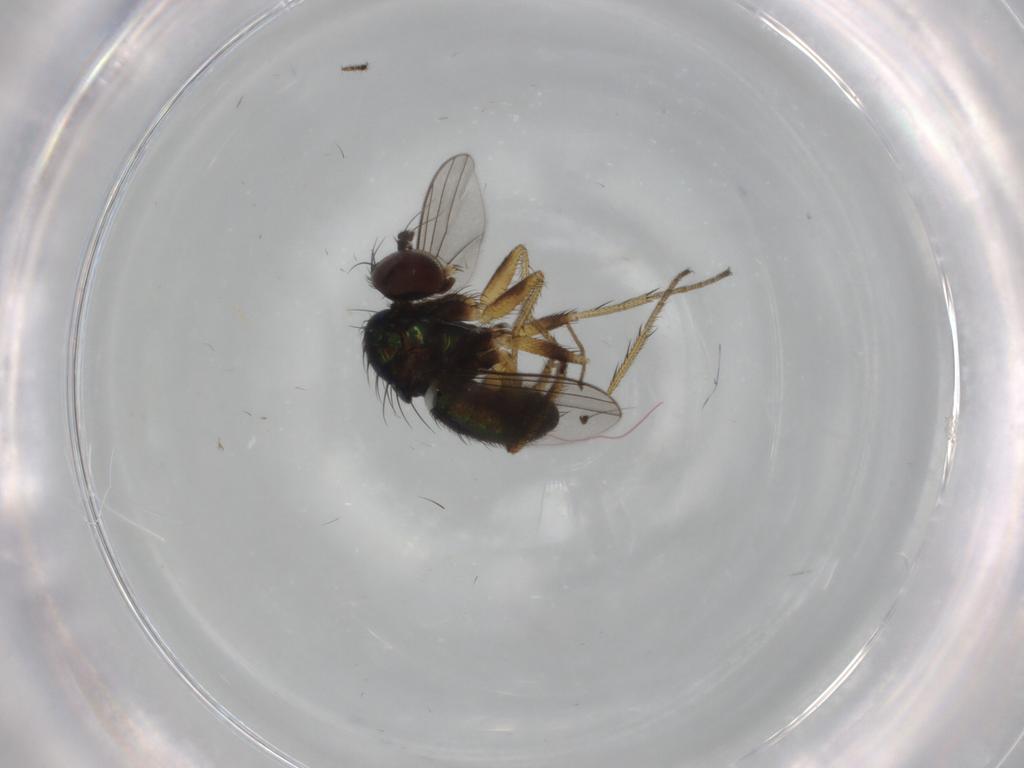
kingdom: Animalia
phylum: Arthropoda
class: Insecta
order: Diptera
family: Dolichopodidae
